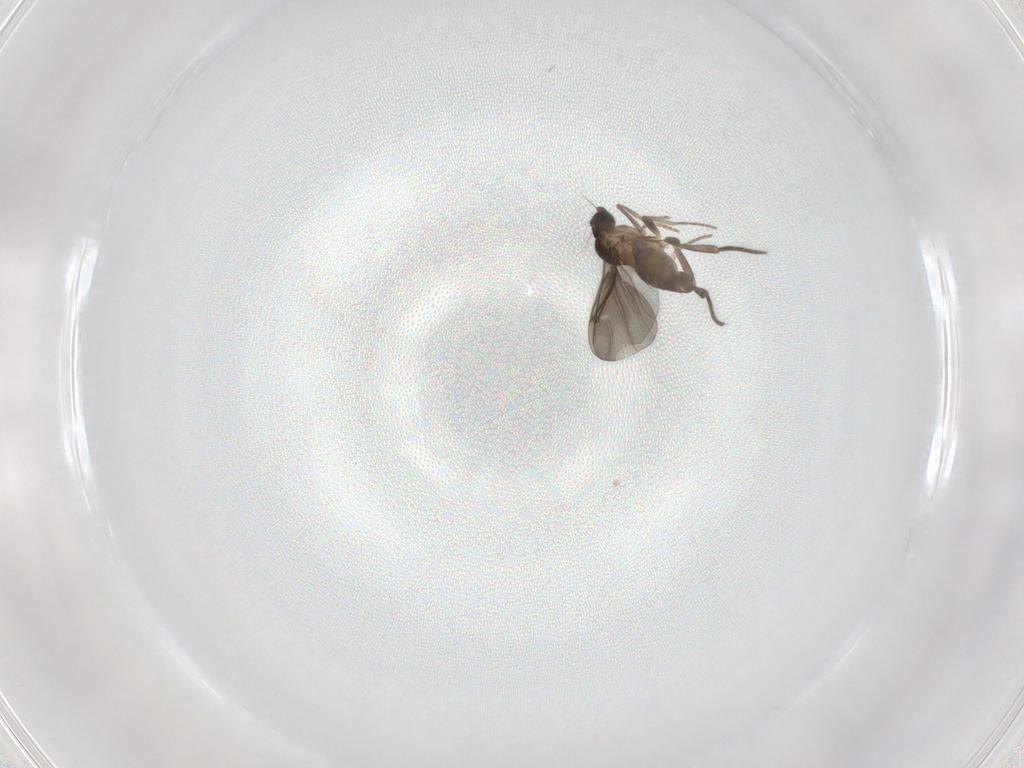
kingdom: Animalia
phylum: Arthropoda
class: Insecta
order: Diptera
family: Phoridae
